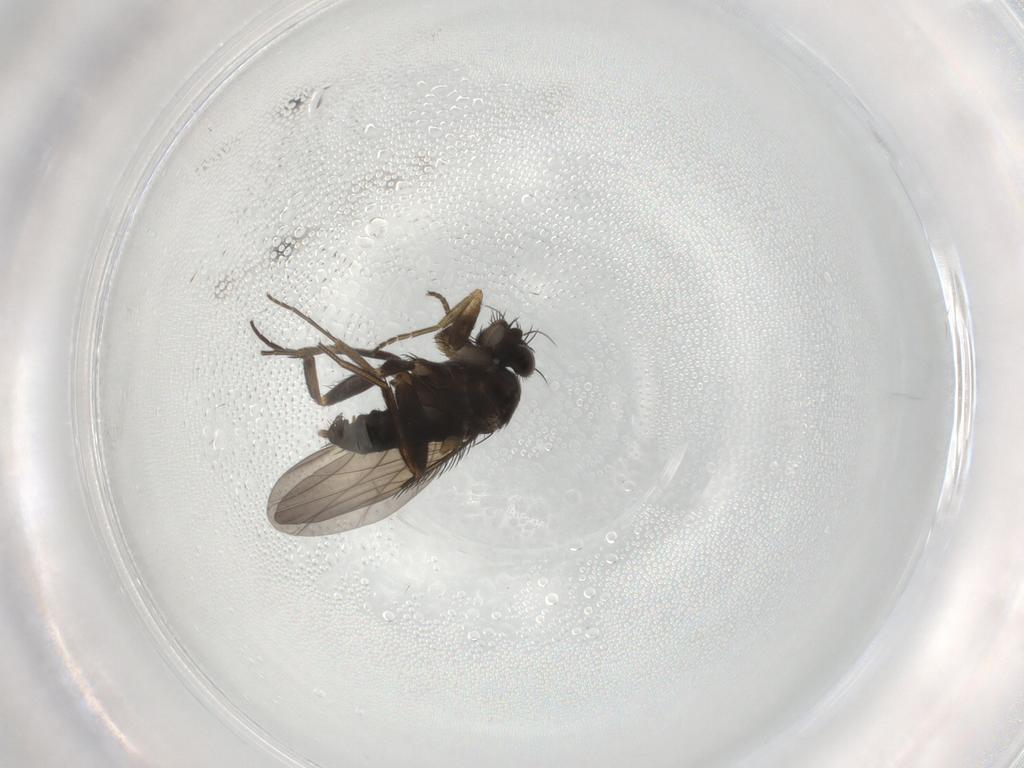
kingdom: Animalia
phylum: Arthropoda
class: Insecta
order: Diptera
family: Phoridae
